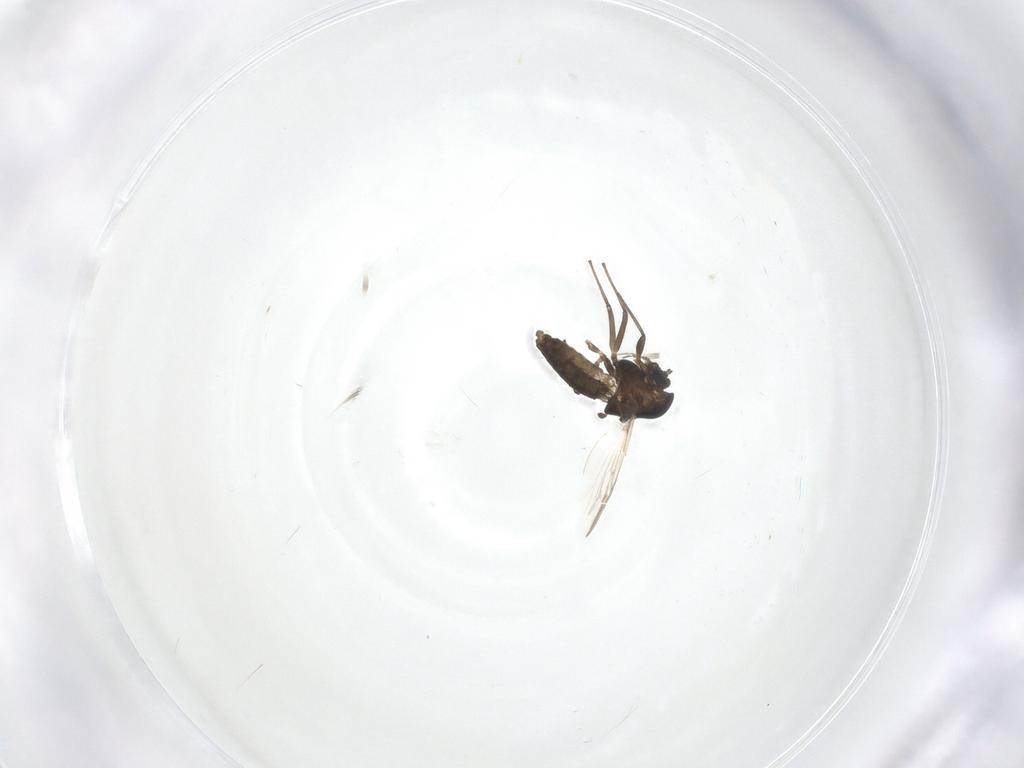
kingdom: Animalia
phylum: Arthropoda
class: Insecta
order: Diptera
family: Chironomidae
